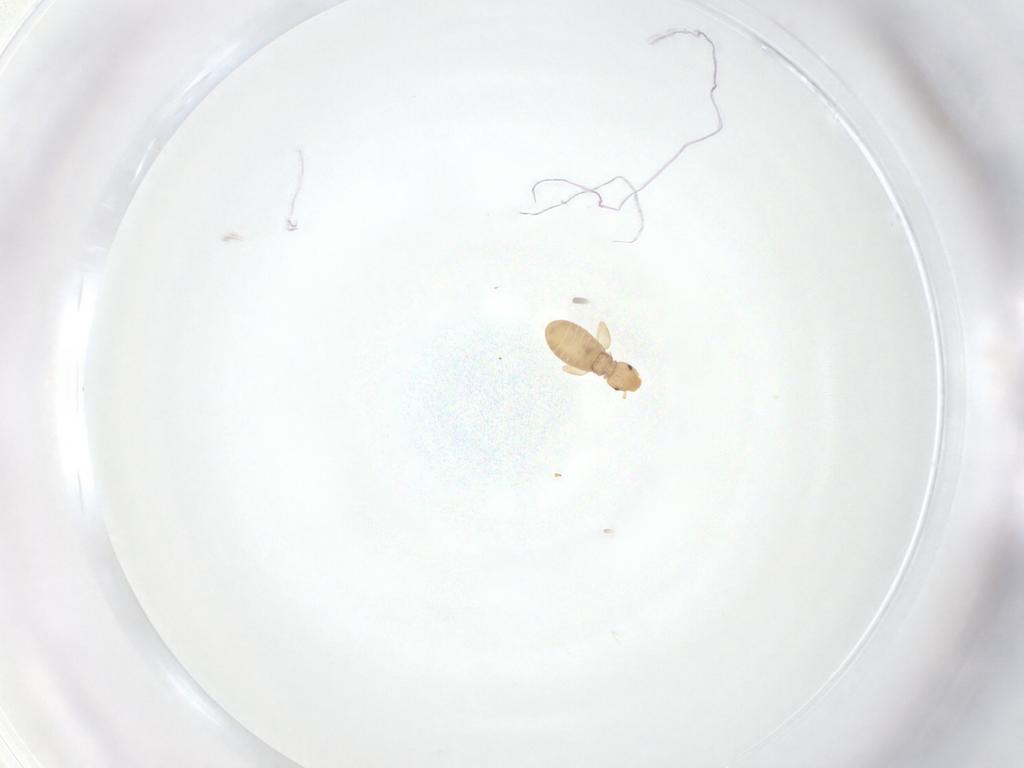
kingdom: Animalia
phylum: Arthropoda
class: Insecta
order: Psocodea
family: Liposcelididae
